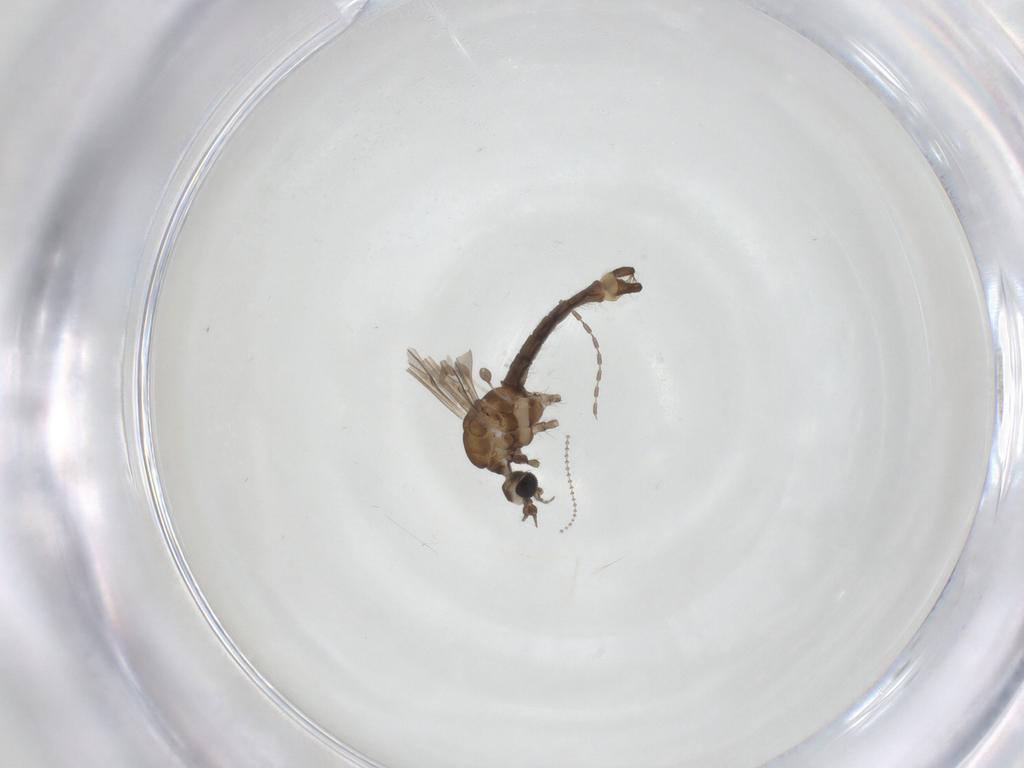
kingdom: Animalia
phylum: Arthropoda
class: Insecta
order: Diptera
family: Limoniidae
